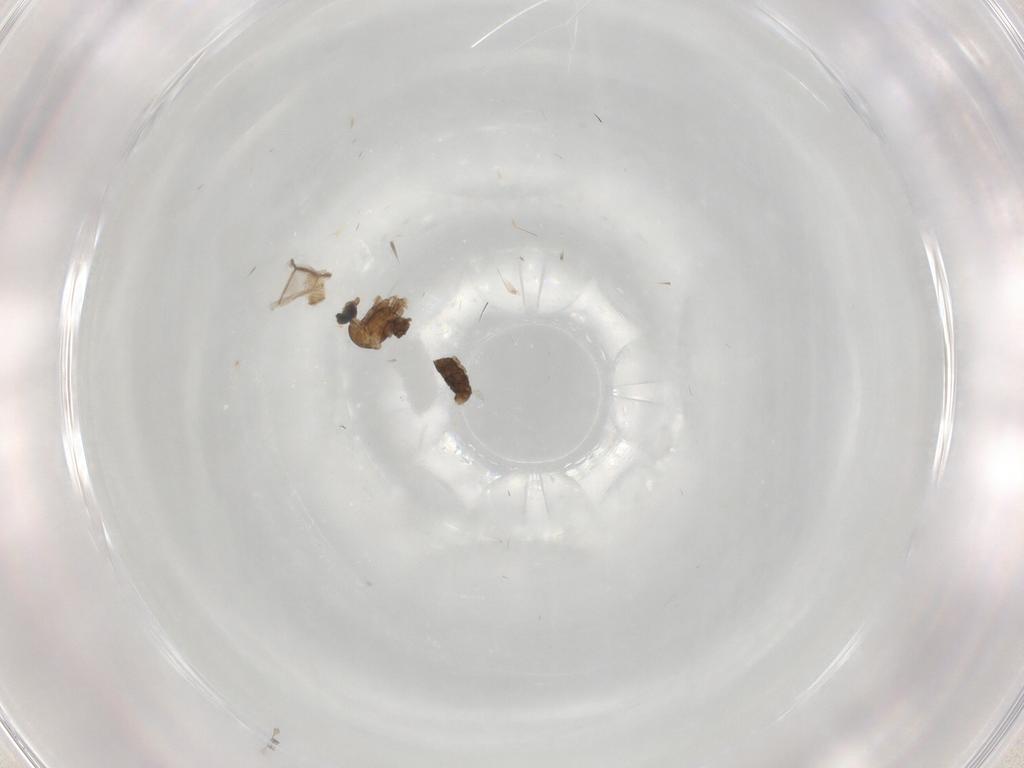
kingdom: Animalia
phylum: Arthropoda
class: Insecta
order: Diptera
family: Cecidomyiidae
